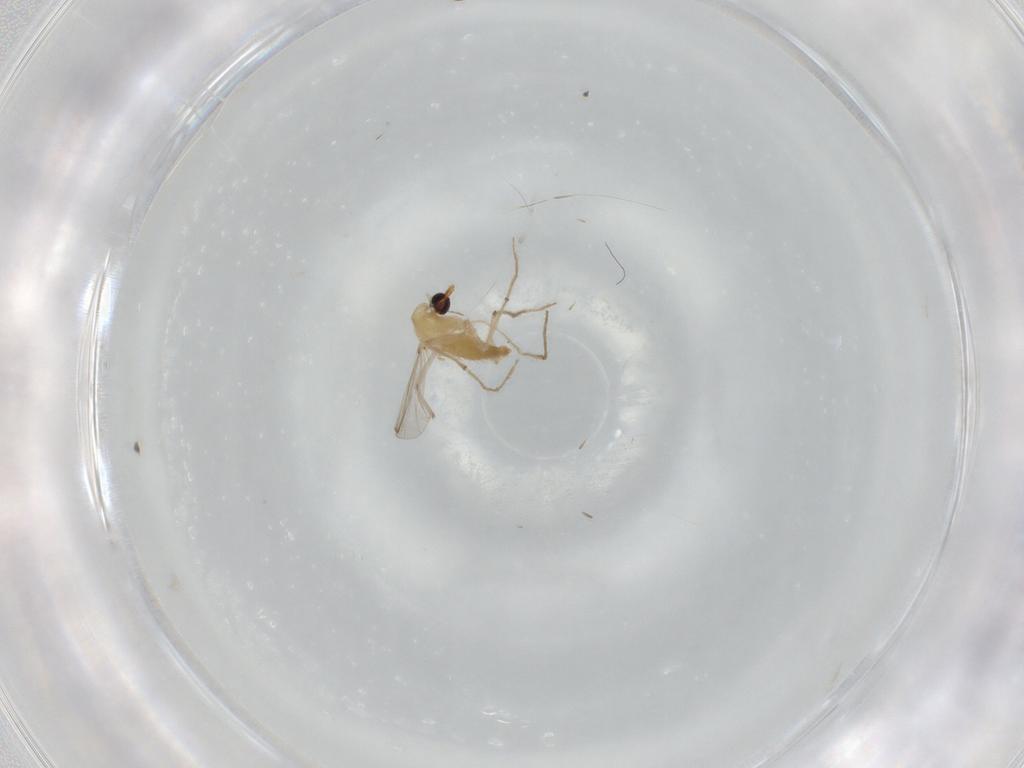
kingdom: Animalia
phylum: Arthropoda
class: Insecta
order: Diptera
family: Chironomidae
